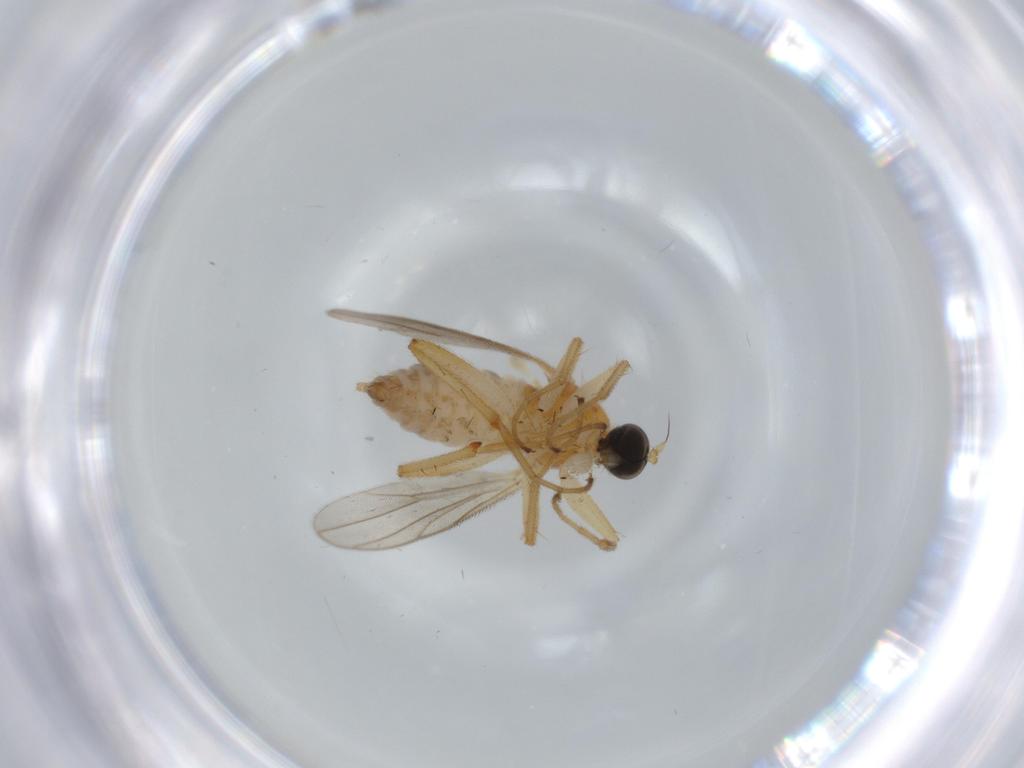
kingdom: Animalia
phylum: Arthropoda
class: Insecta
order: Diptera
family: Hybotidae
